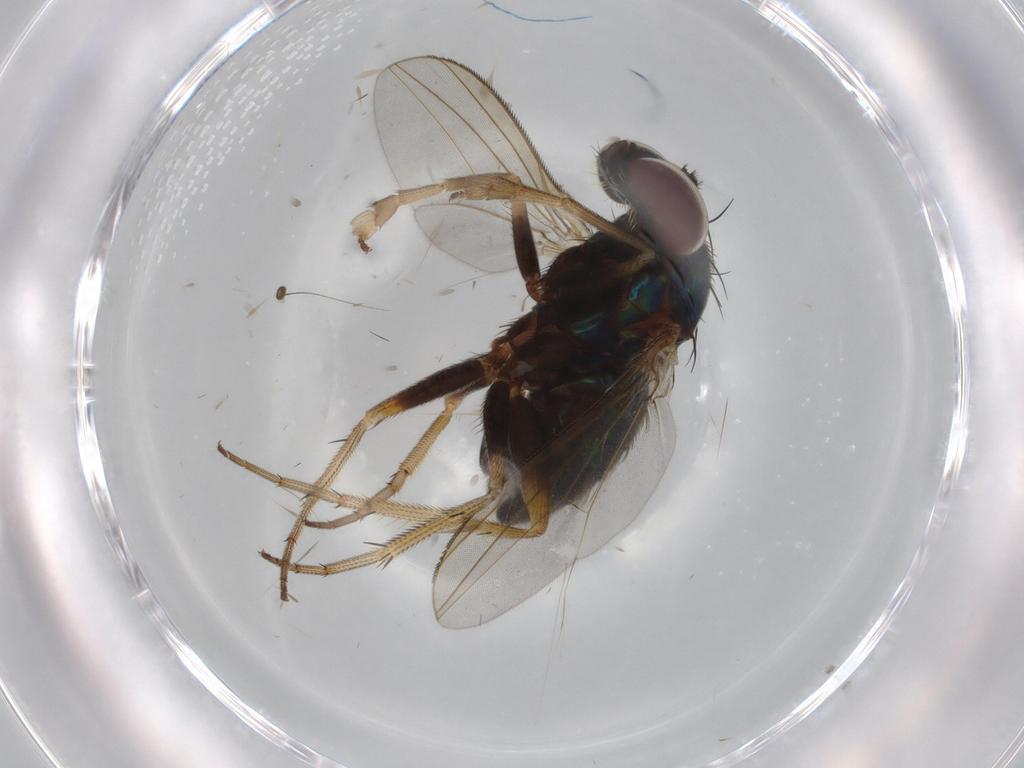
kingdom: Animalia
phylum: Arthropoda
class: Insecta
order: Diptera
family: Dolichopodidae
